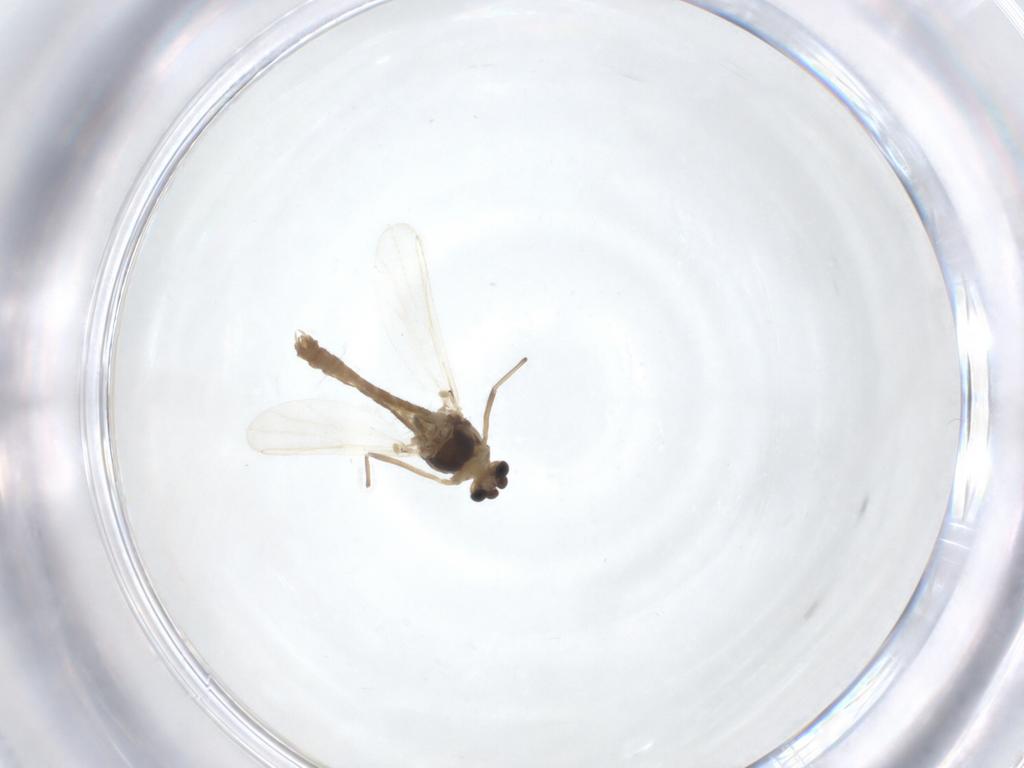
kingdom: Animalia
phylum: Arthropoda
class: Insecta
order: Diptera
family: Chironomidae
